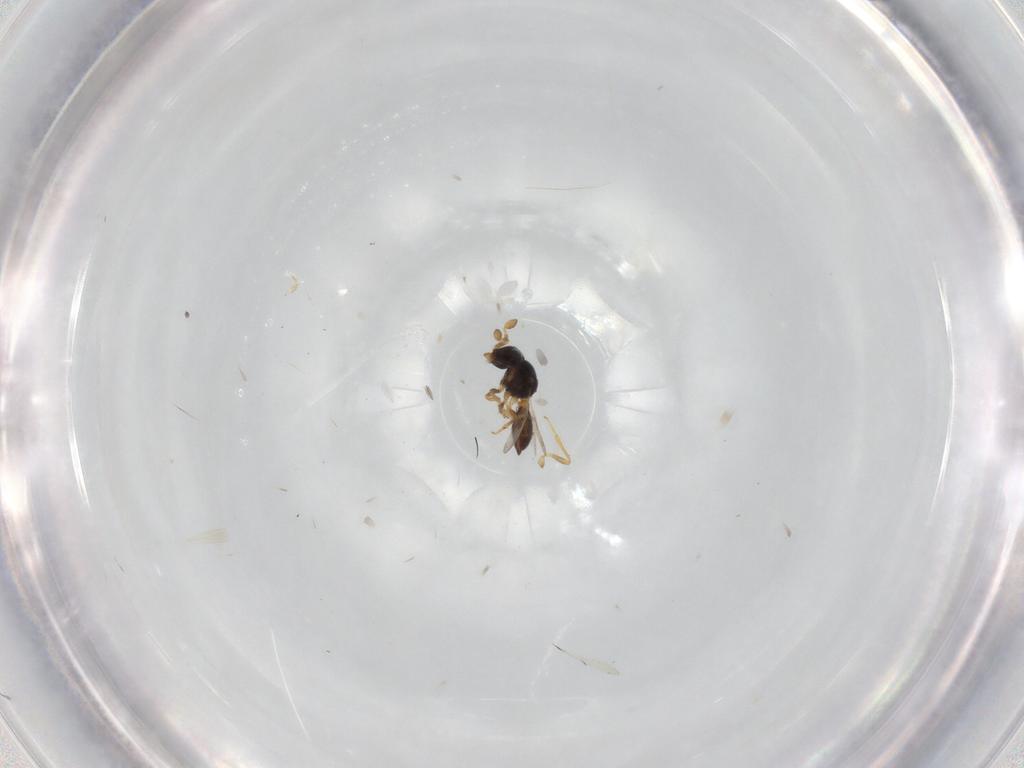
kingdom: Animalia
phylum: Arthropoda
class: Insecta
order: Hymenoptera
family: Scelionidae
